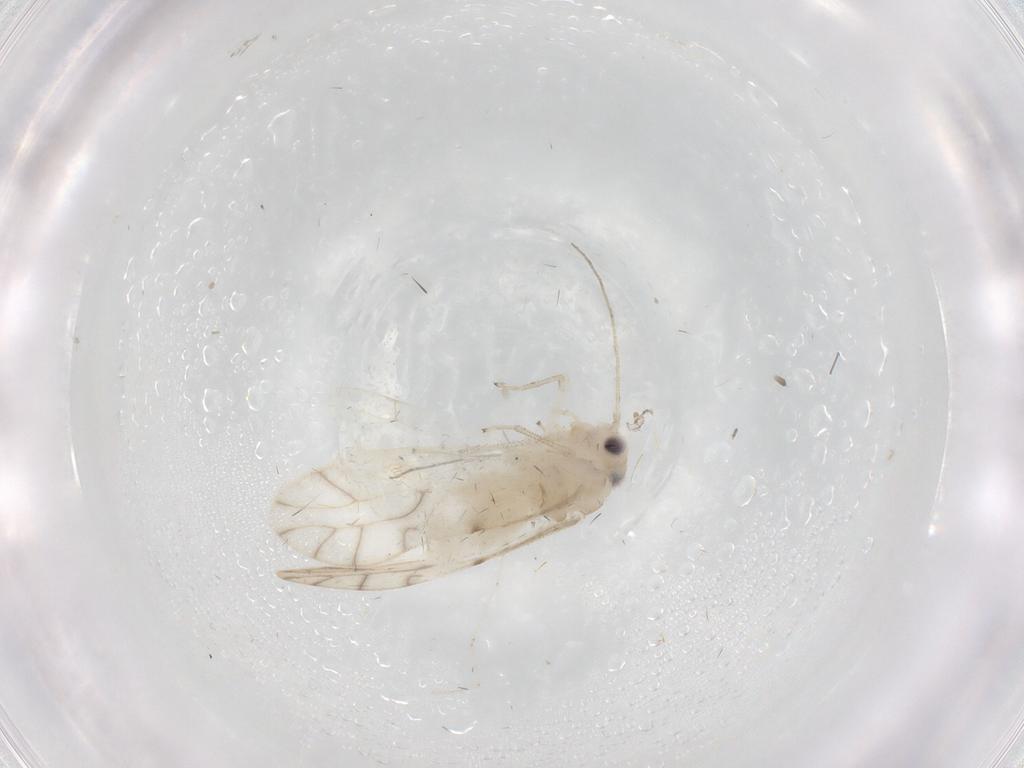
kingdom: Animalia
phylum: Arthropoda
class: Insecta
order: Psocodea
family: Caeciliusidae
